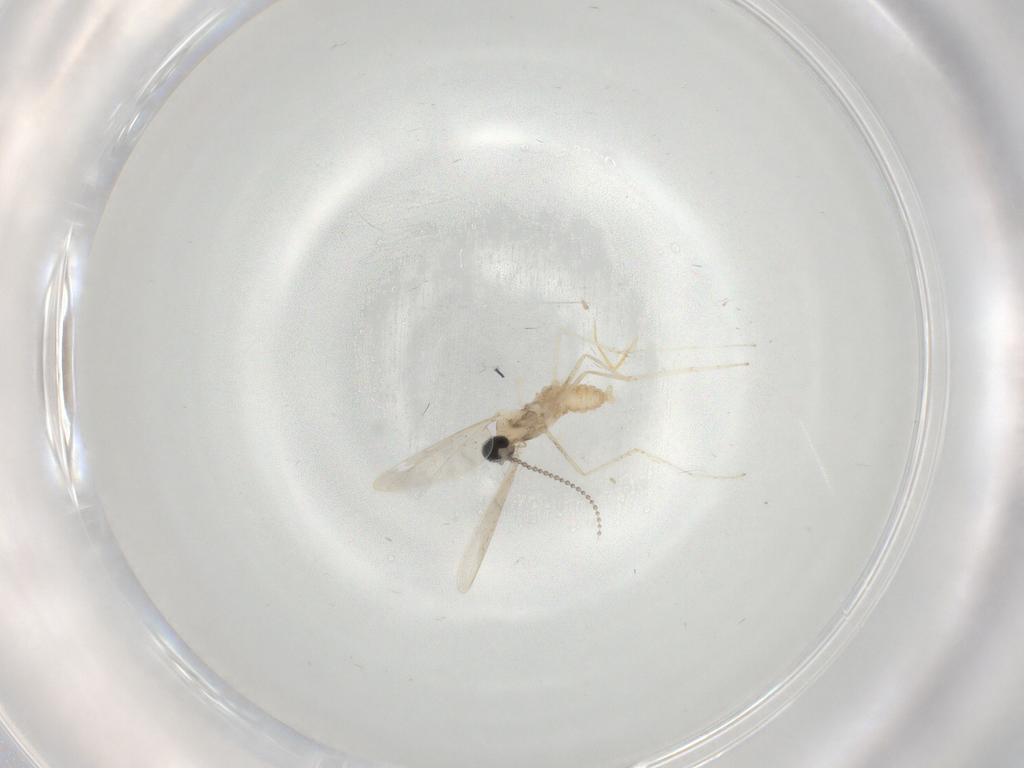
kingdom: Animalia
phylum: Arthropoda
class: Insecta
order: Diptera
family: Cecidomyiidae
